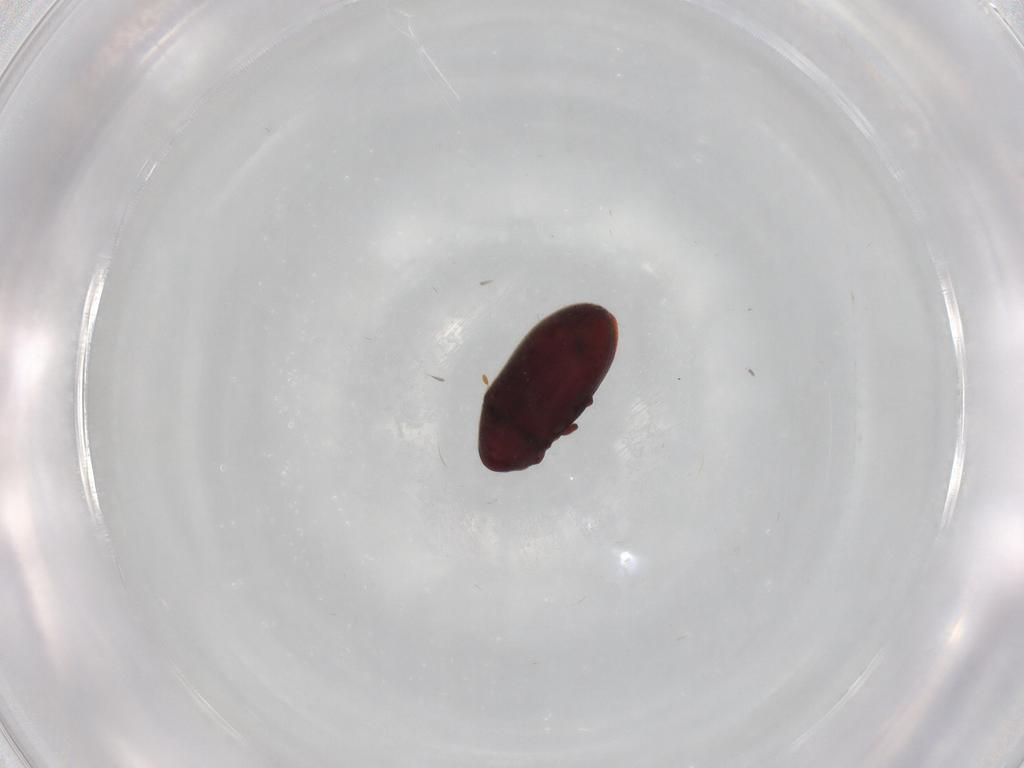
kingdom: Animalia
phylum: Arthropoda
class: Insecta
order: Coleoptera
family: Ptinidae
